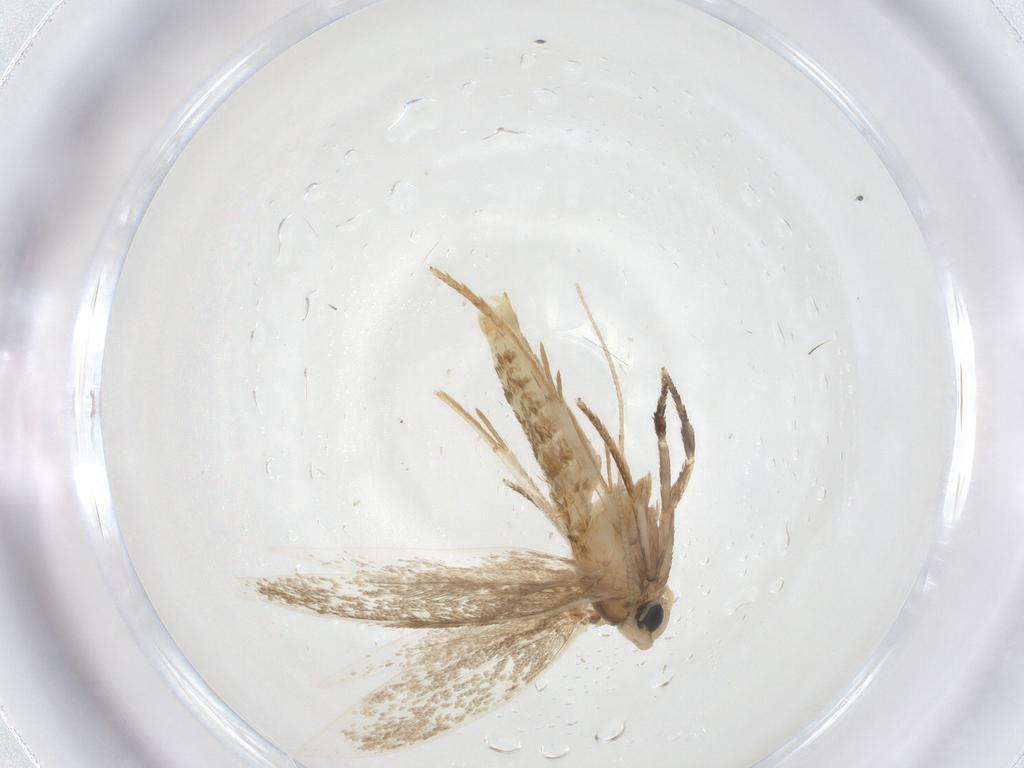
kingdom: Animalia
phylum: Arthropoda
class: Insecta
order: Lepidoptera
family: Tineidae
